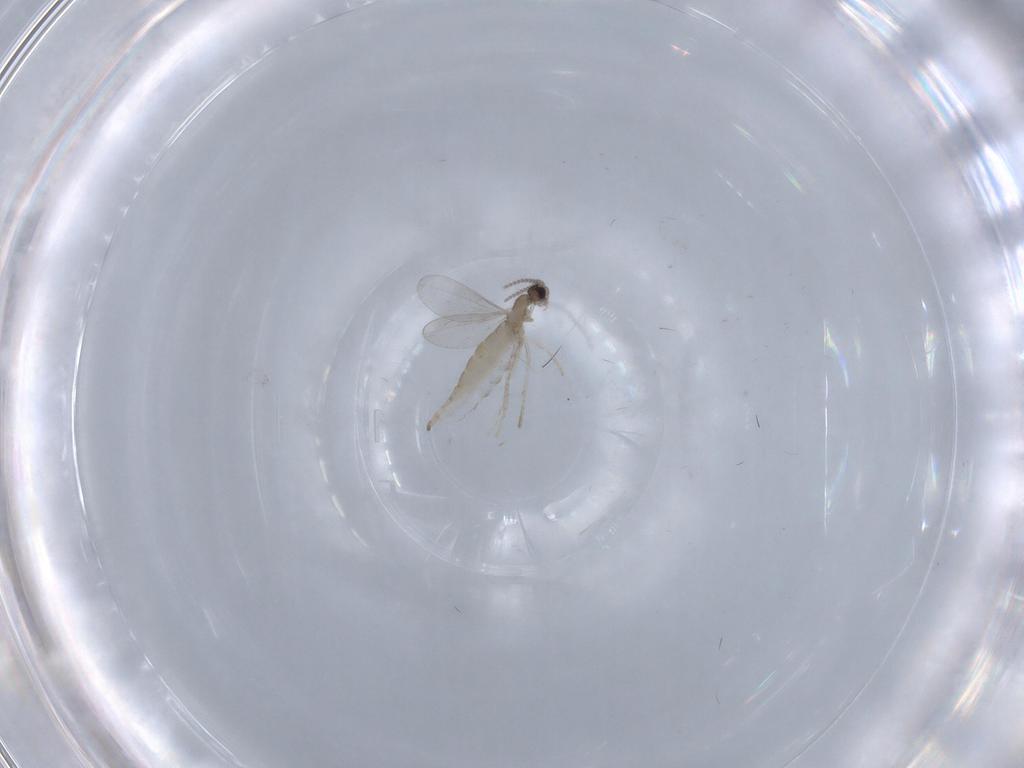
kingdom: Animalia
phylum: Arthropoda
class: Insecta
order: Diptera
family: Cecidomyiidae
